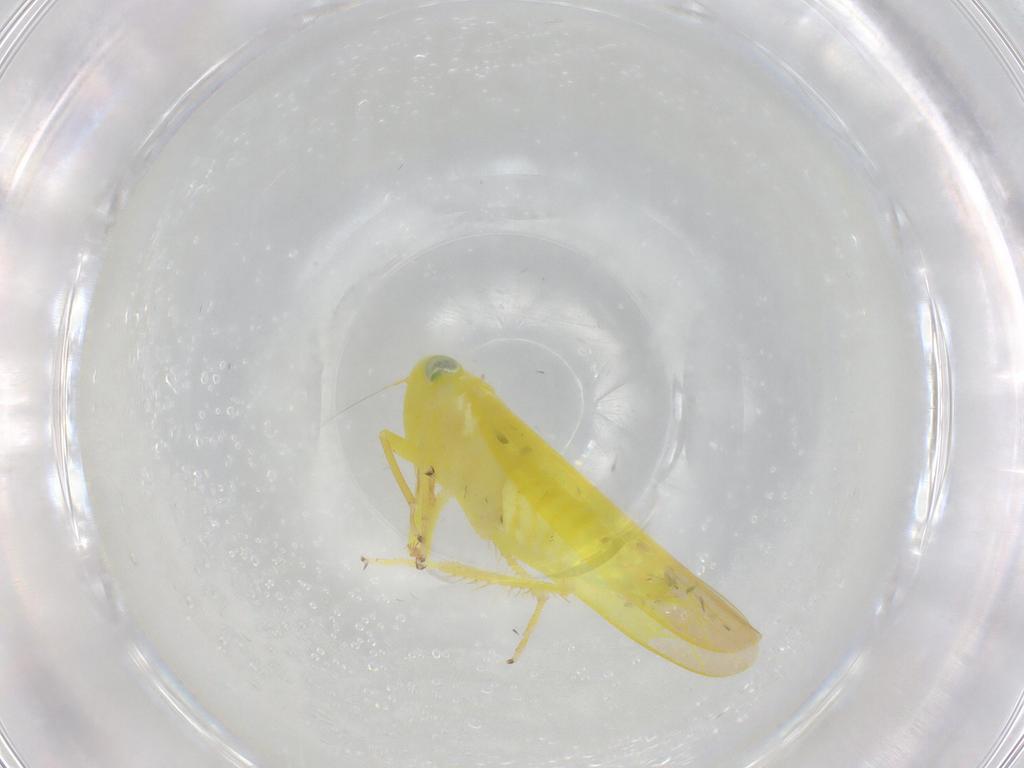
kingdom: Animalia
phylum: Arthropoda
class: Insecta
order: Hemiptera
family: Cicadellidae
